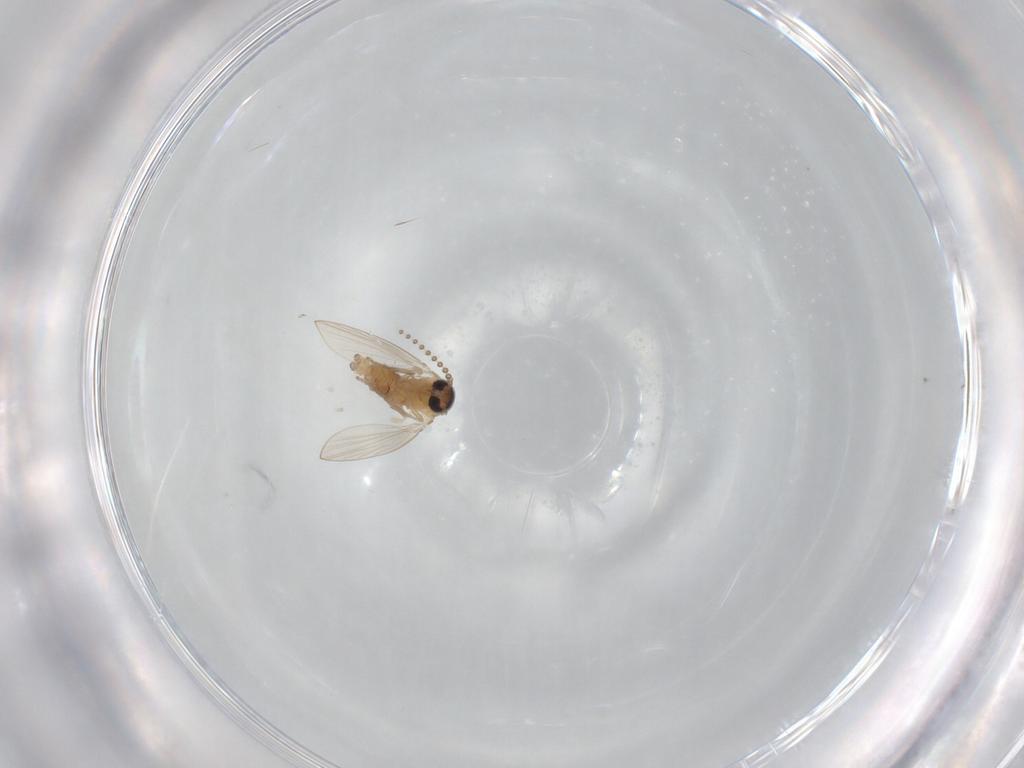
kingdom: Animalia
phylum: Arthropoda
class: Insecta
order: Diptera
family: Psychodidae
